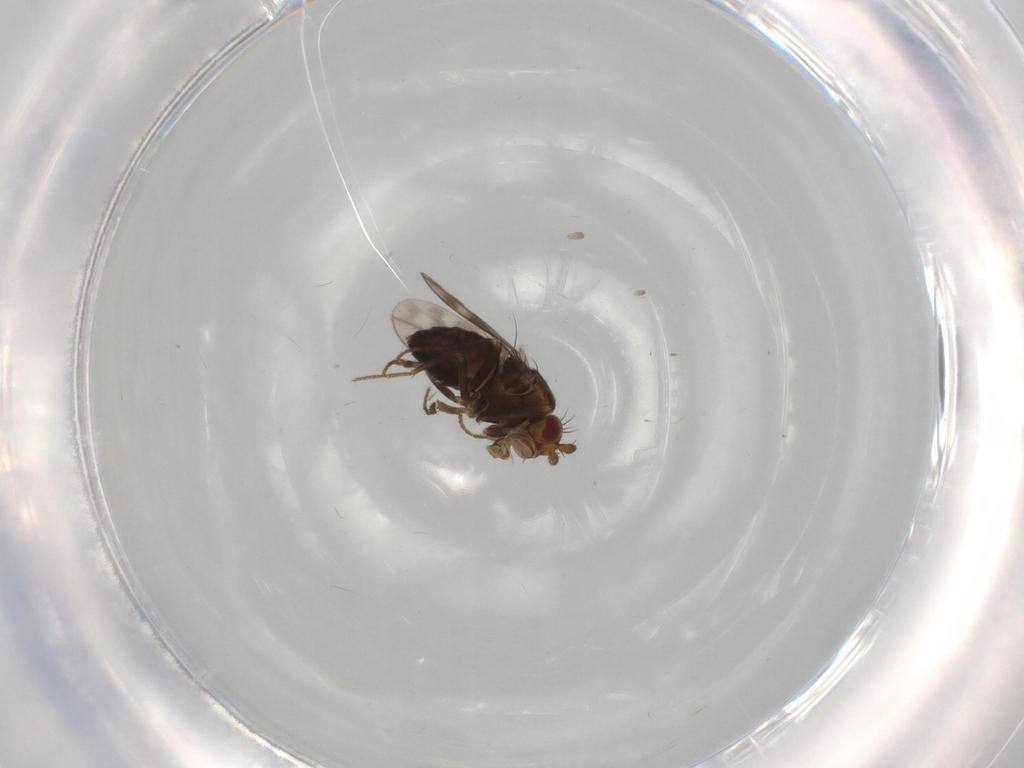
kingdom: Animalia
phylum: Arthropoda
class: Insecta
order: Diptera
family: Sphaeroceridae
